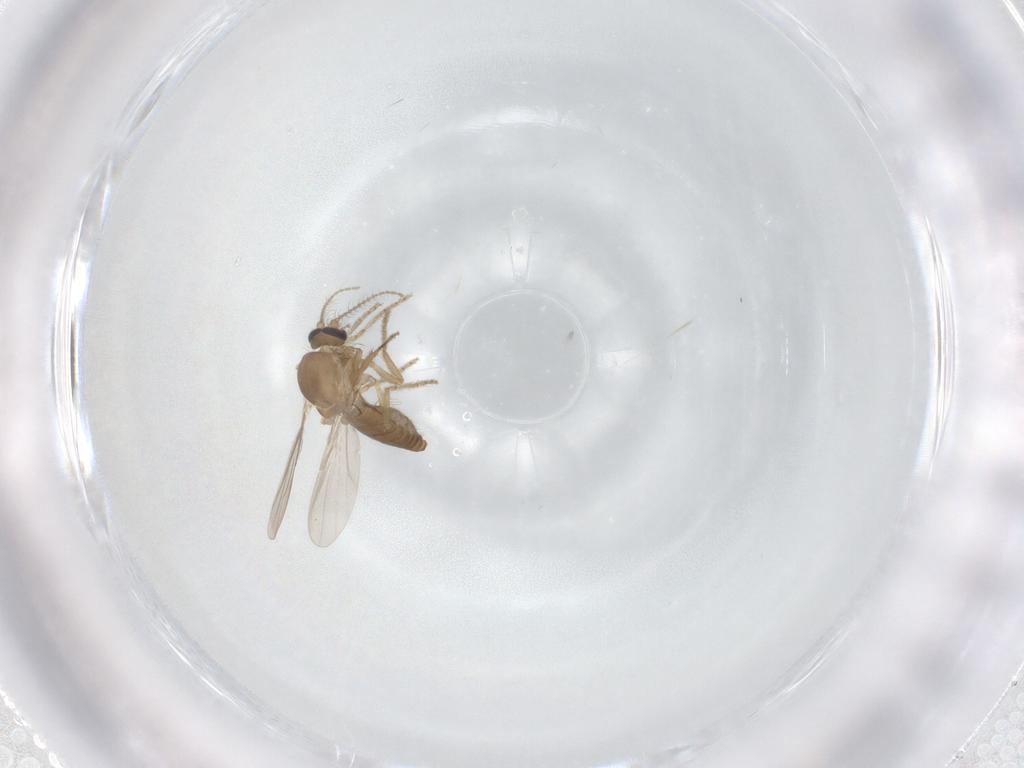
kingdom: Animalia
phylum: Arthropoda
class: Insecta
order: Diptera
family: Ceratopogonidae
